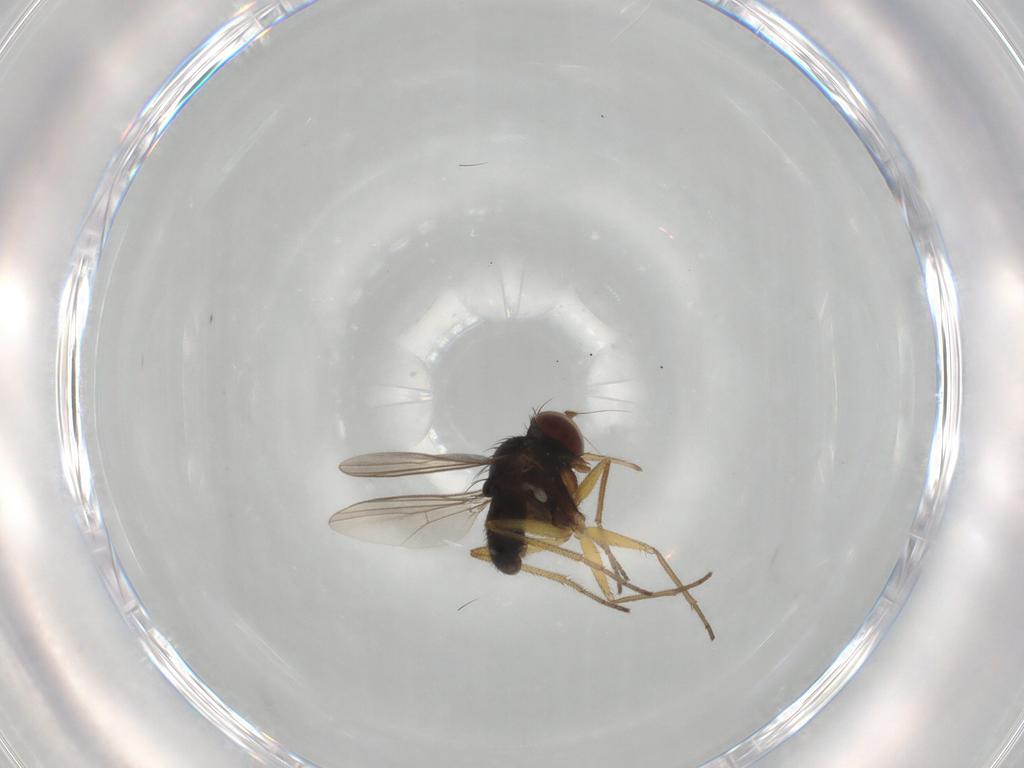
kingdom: Animalia
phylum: Arthropoda
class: Insecta
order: Diptera
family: Dolichopodidae
